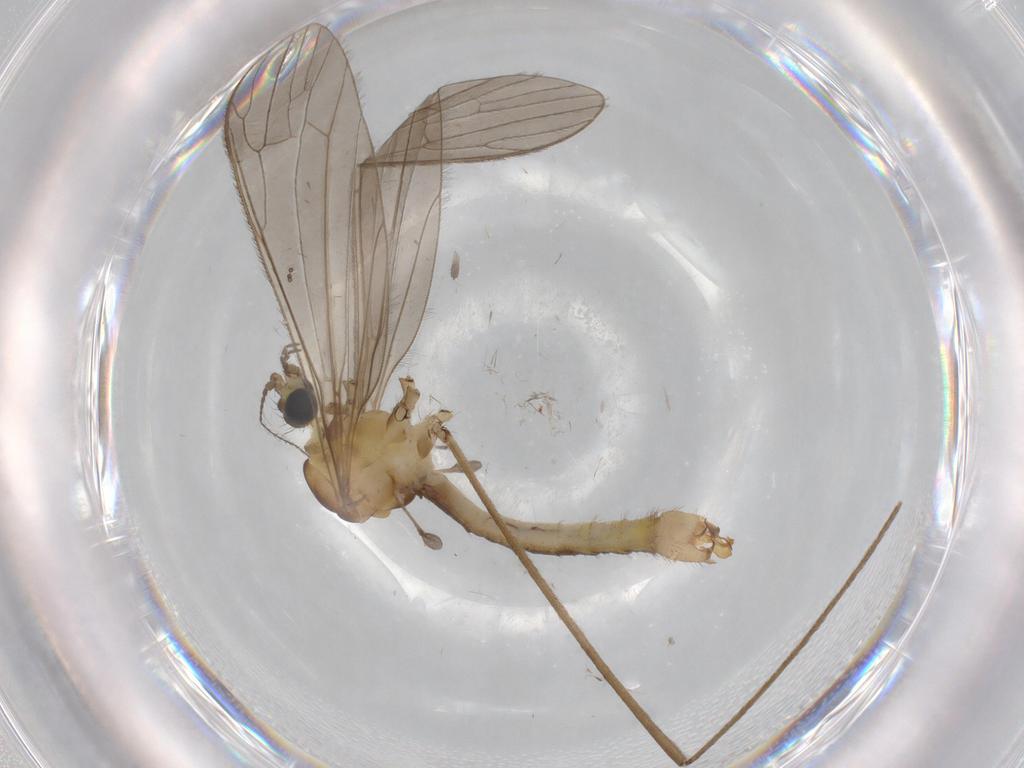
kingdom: Animalia
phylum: Arthropoda
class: Insecta
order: Diptera
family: Limoniidae
